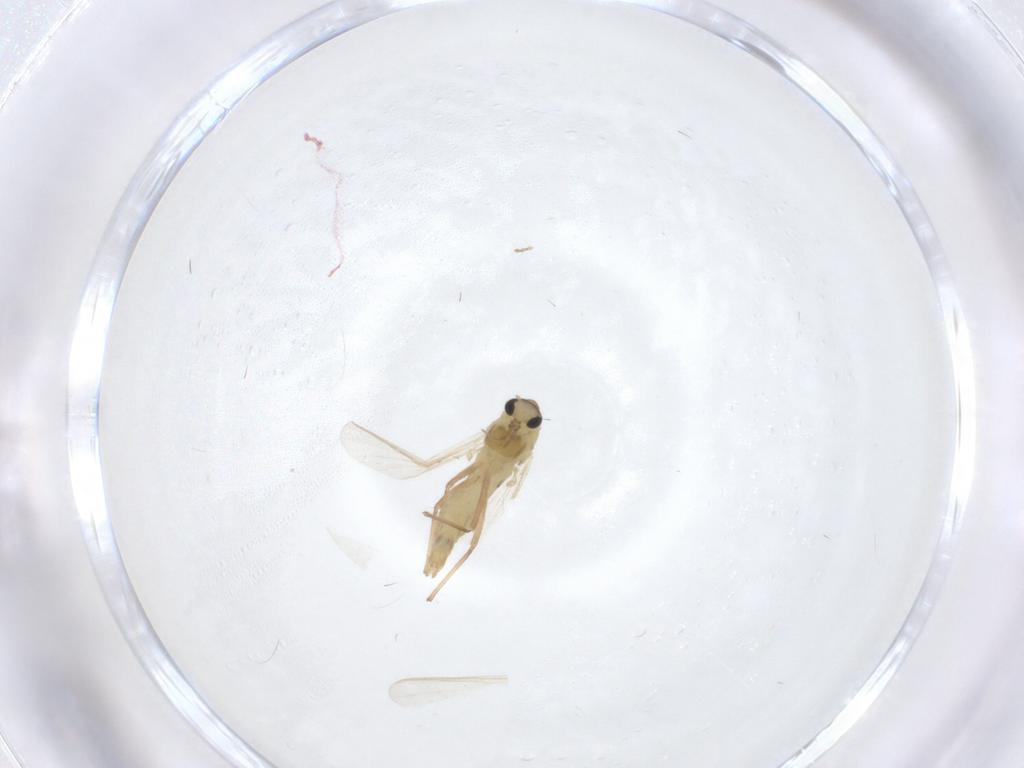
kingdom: Animalia
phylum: Arthropoda
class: Insecta
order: Diptera
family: Chironomidae
